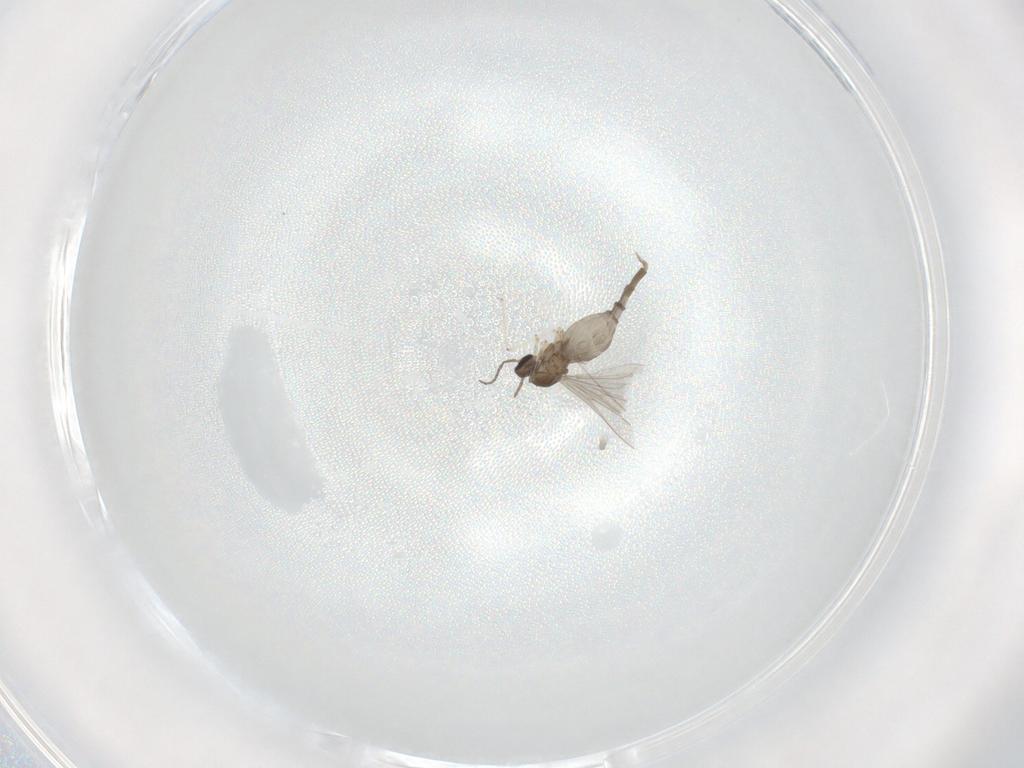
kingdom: Animalia
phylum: Arthropoda
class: Insecta
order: Diptera
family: Cecidomyiidae
